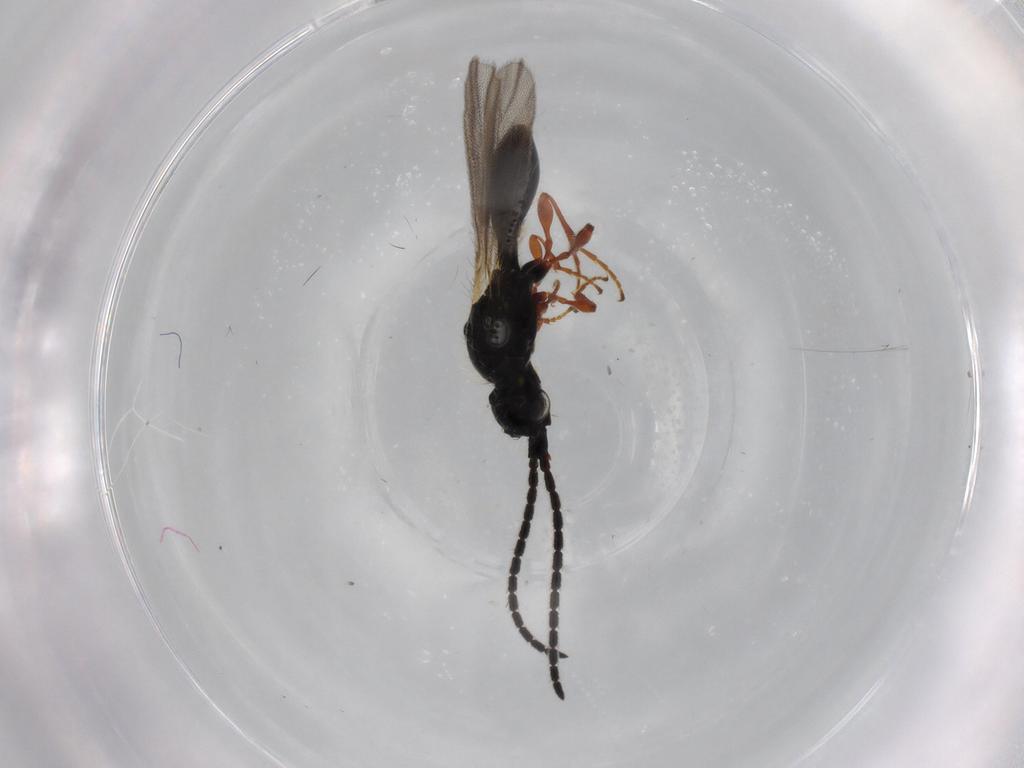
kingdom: Animalia
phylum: Arthropoda
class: Insecta
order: Hymenoptera
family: Diapriidae
